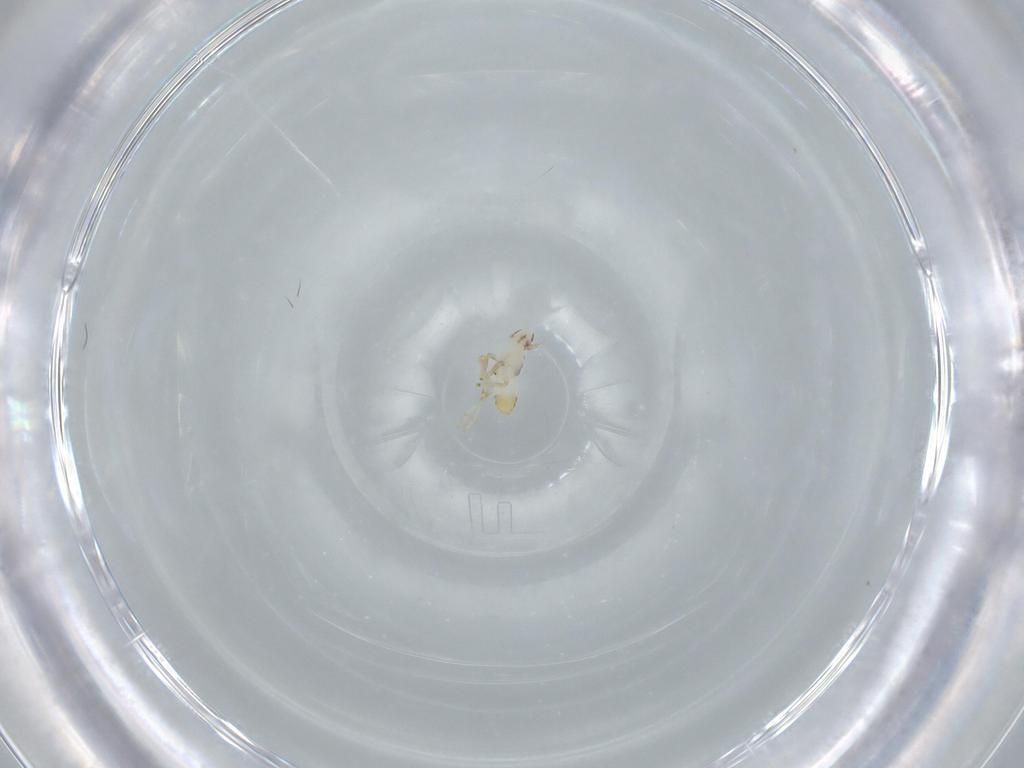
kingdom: Animalia
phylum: Arthropoda
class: Insecta
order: Hemiptera
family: Delphacidae
